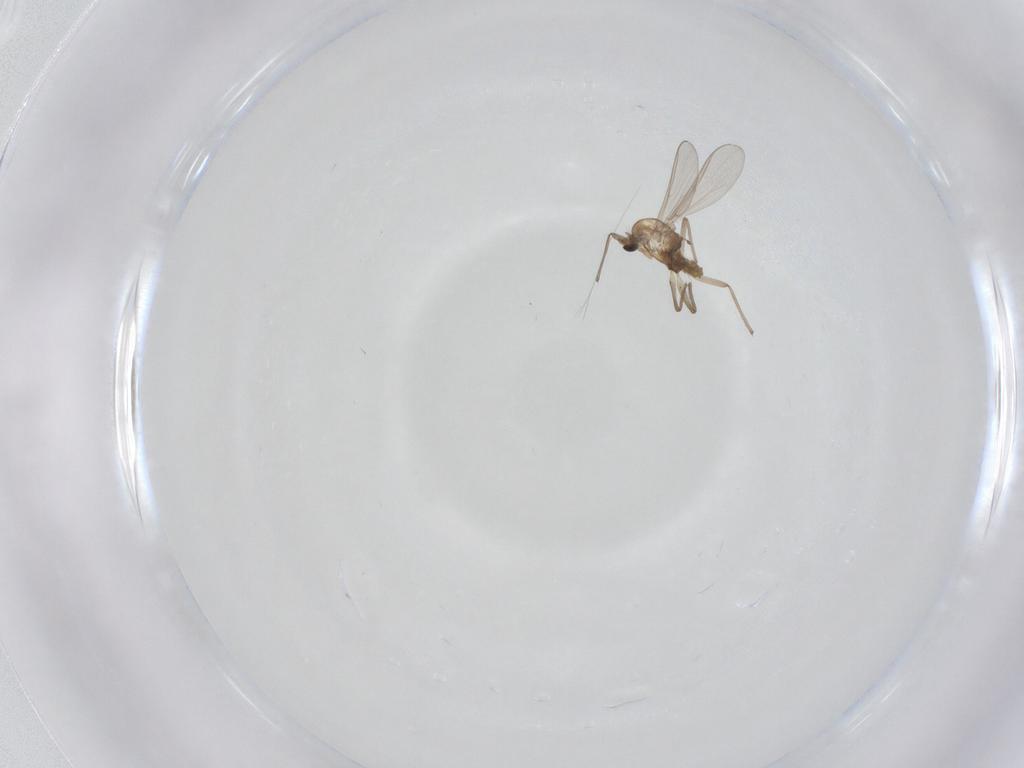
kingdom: Animalia
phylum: Arthropoda
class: Insecta
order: Diptera
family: Chironomidae
